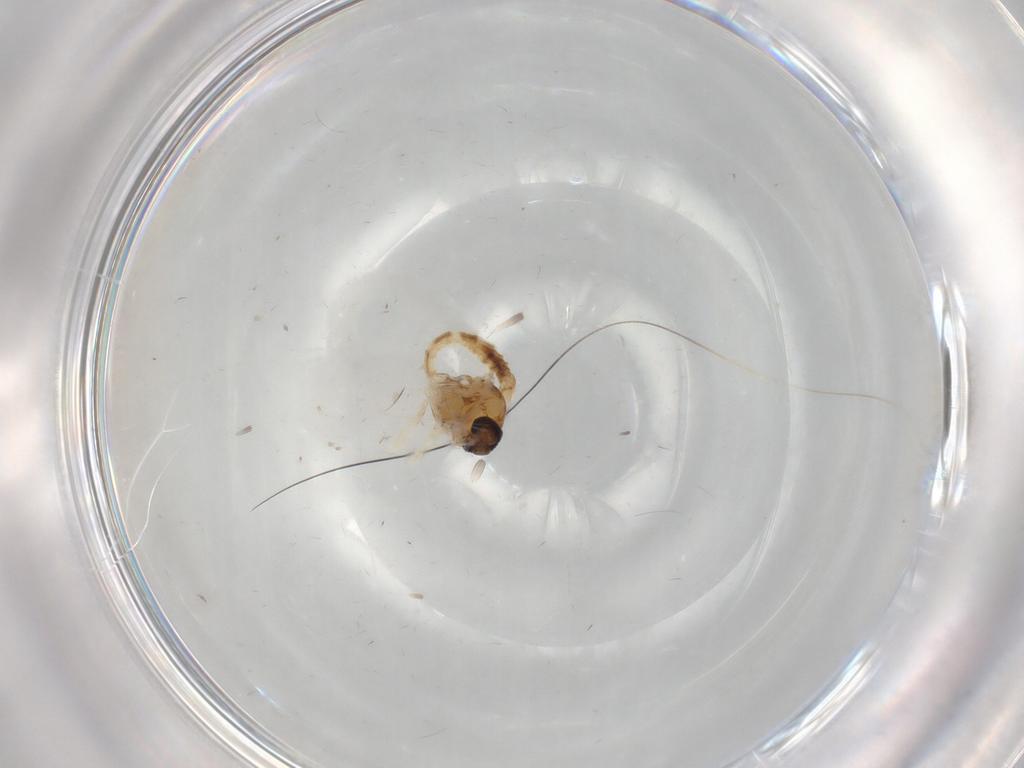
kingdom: Animalia
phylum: Arthropoda
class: Insecta
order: Diptera
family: Ceratopogonidae
